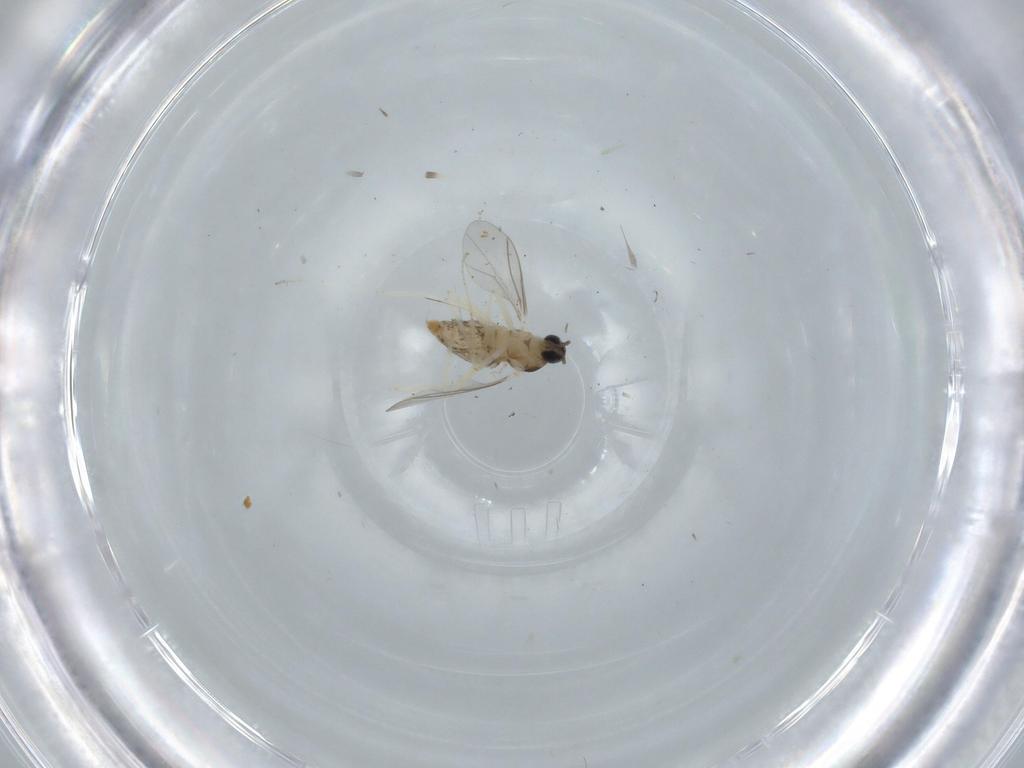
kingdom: Animalia
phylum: Arthropoda
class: Insecta
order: Diptera
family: Cecidomyiidae
